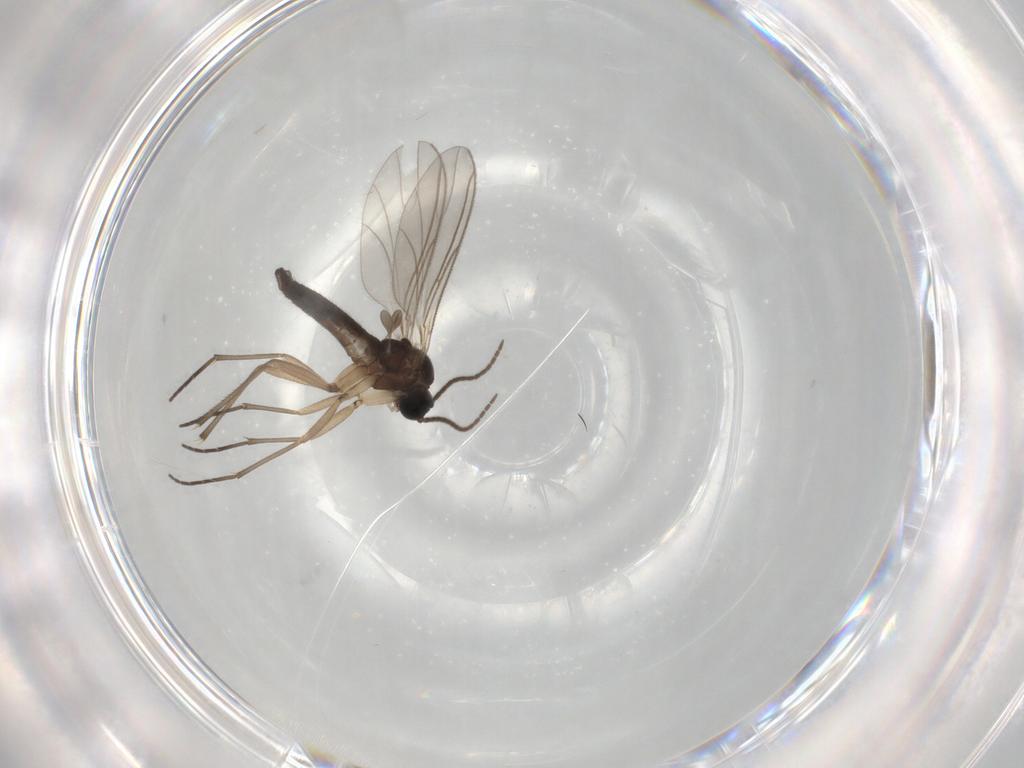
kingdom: Animalia
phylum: Arthropoda
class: Insecta
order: Diptera
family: Sciaridae
